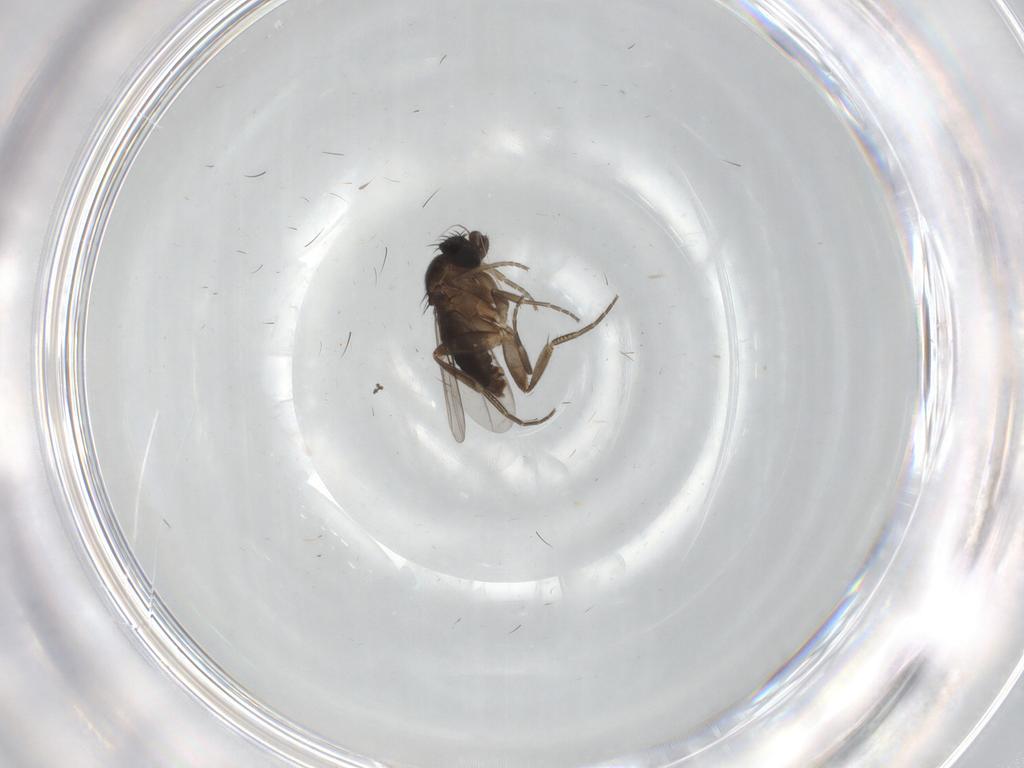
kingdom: Animalia
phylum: Arthropoda
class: Insecta
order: Diptera
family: Phoridae
